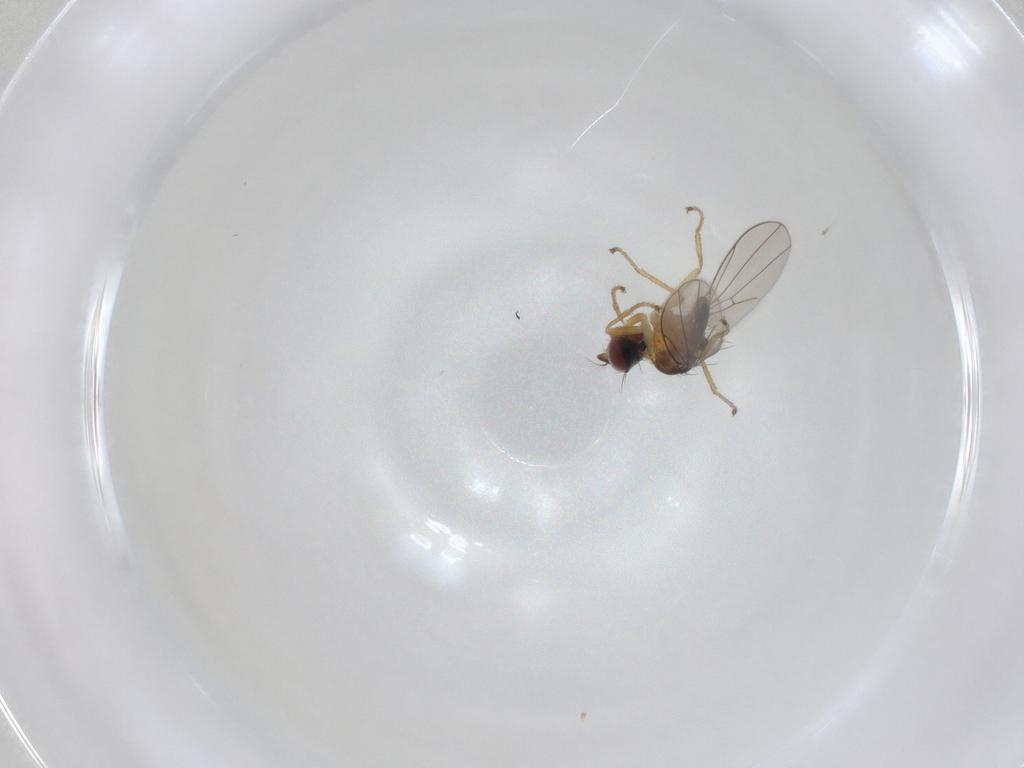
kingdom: Animalia
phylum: Arthropoda
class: Insecta
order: Diptera
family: Ephydridae
